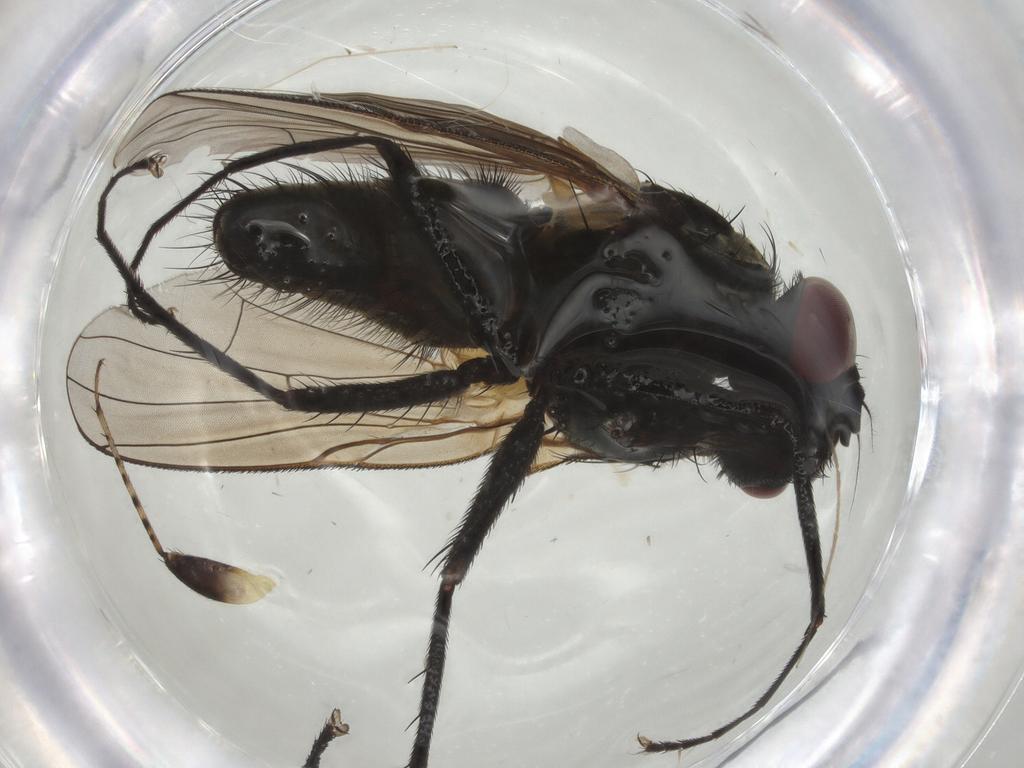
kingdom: Animalia
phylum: Arthropoda
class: Insecta
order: Diptera
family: Muscidae
